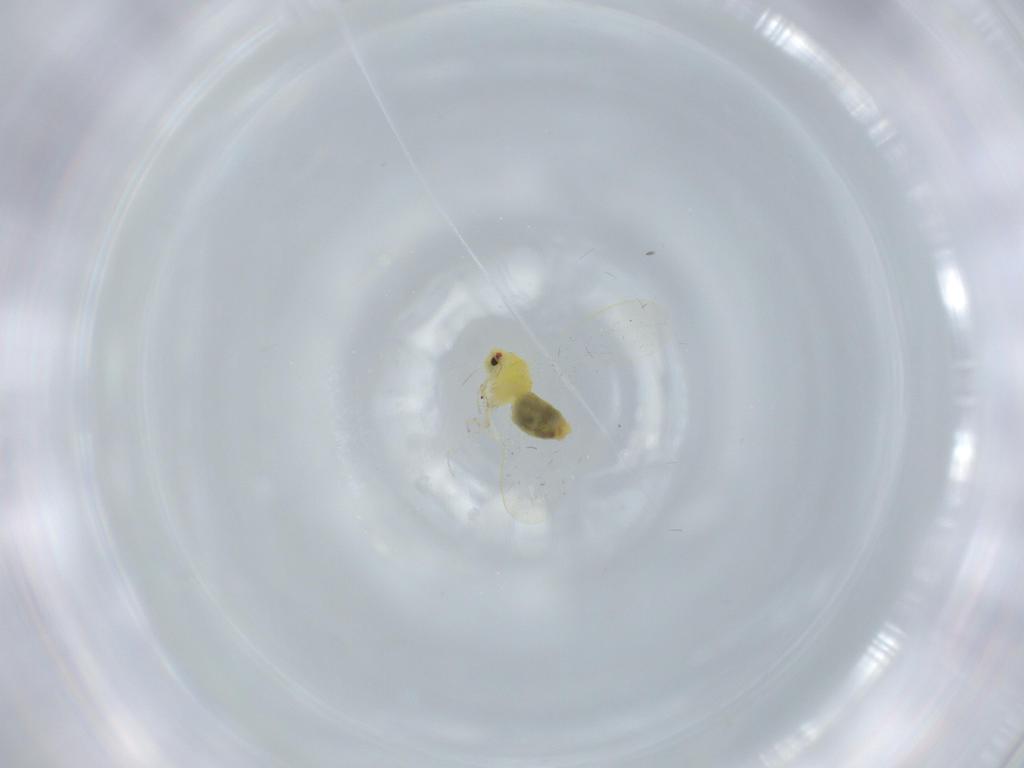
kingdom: Animalia
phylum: Arthropoda
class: Insecta
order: Hemiptera
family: Aleyrodidae
